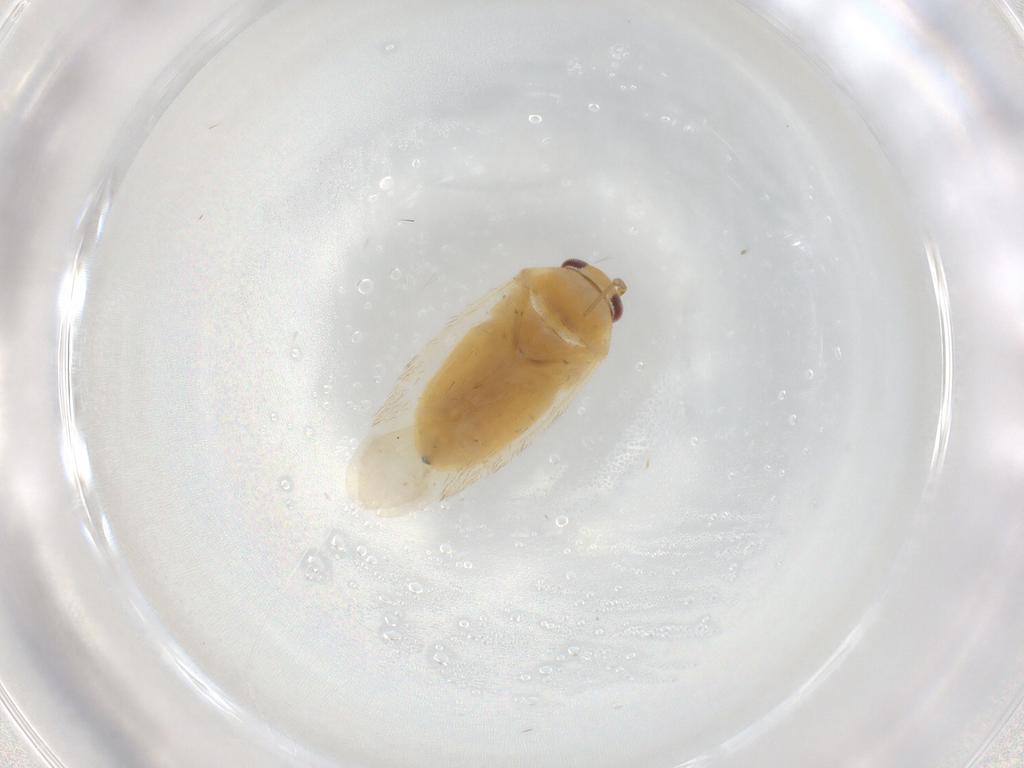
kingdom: Animalia
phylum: Arthropoda
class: Insecta
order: Hemiptera
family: Miridae
